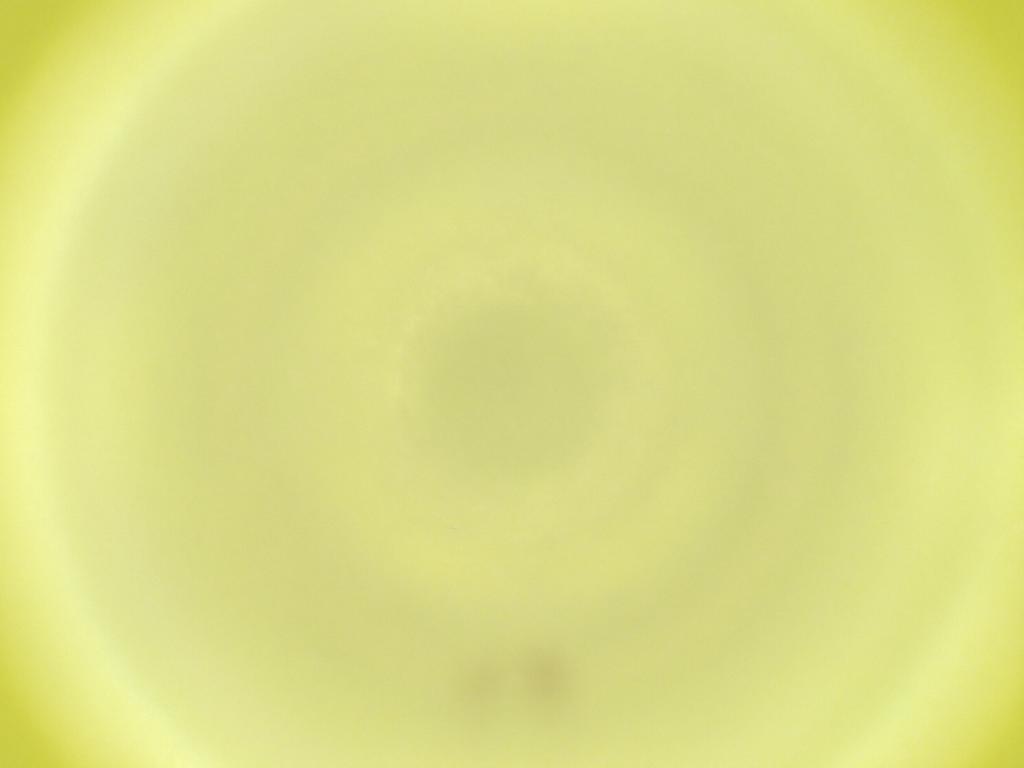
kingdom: Animalia
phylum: Arthropoda
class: Insecta
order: Diptera
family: Cecidomyiidae
